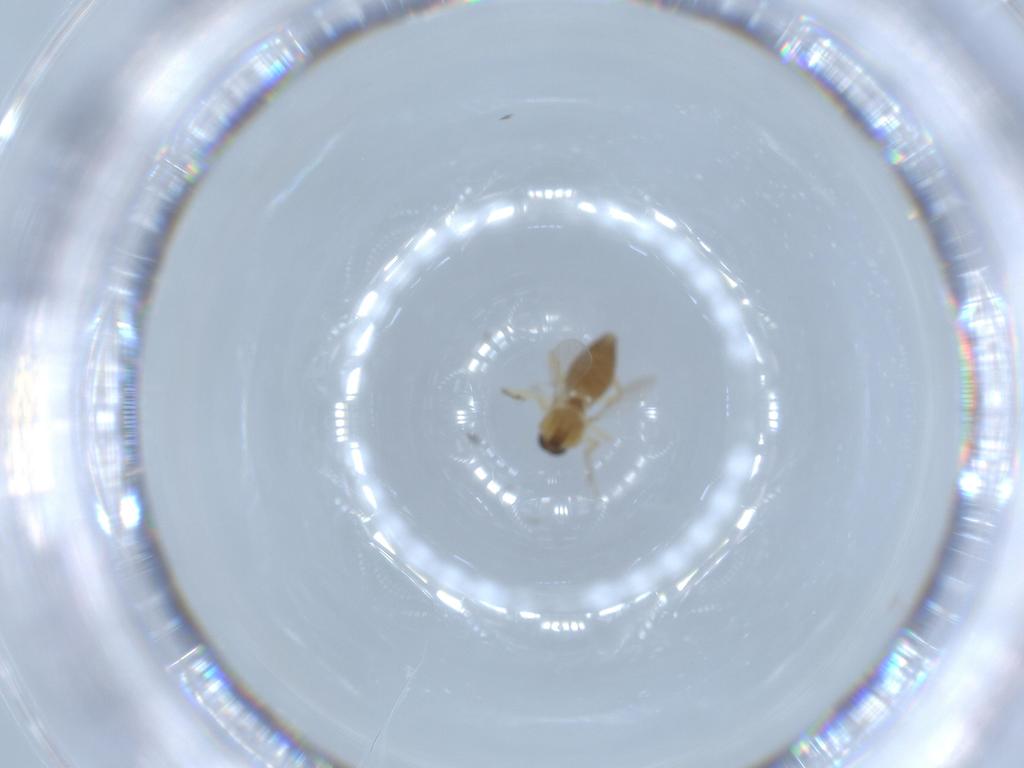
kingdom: Animalia
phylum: Arthropoda
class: Insecta
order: Diptera
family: Ceratopogonidae
